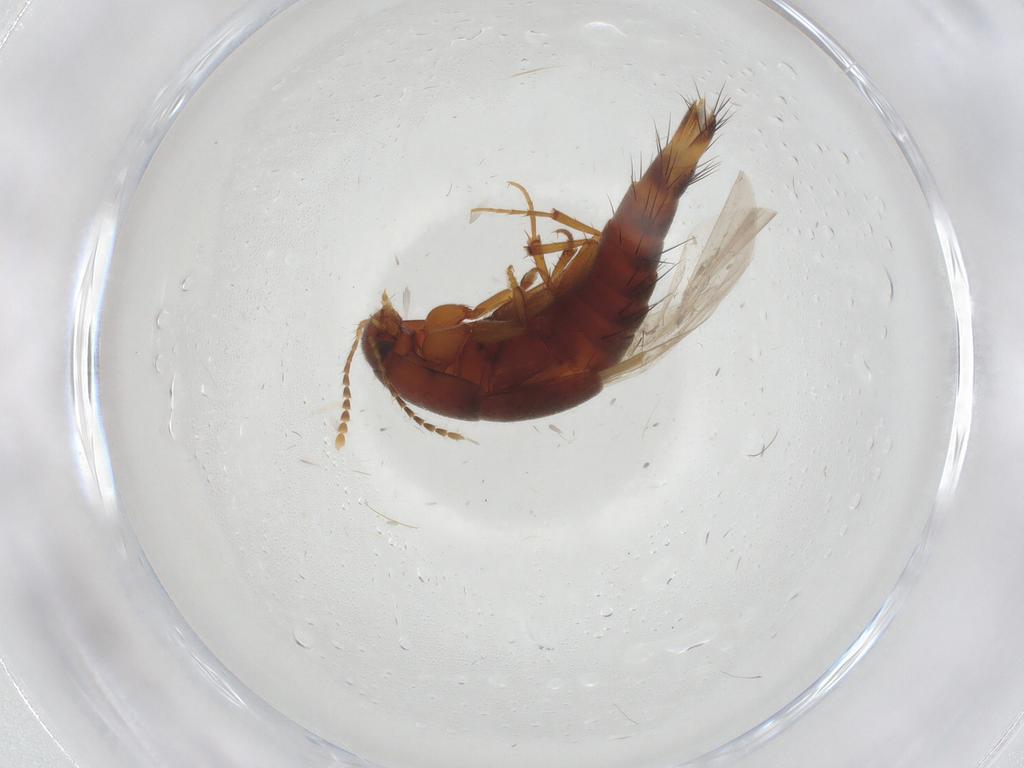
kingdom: Animalia
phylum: Arthropoda
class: Insecta
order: Coleoptera
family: Staphylinidae
